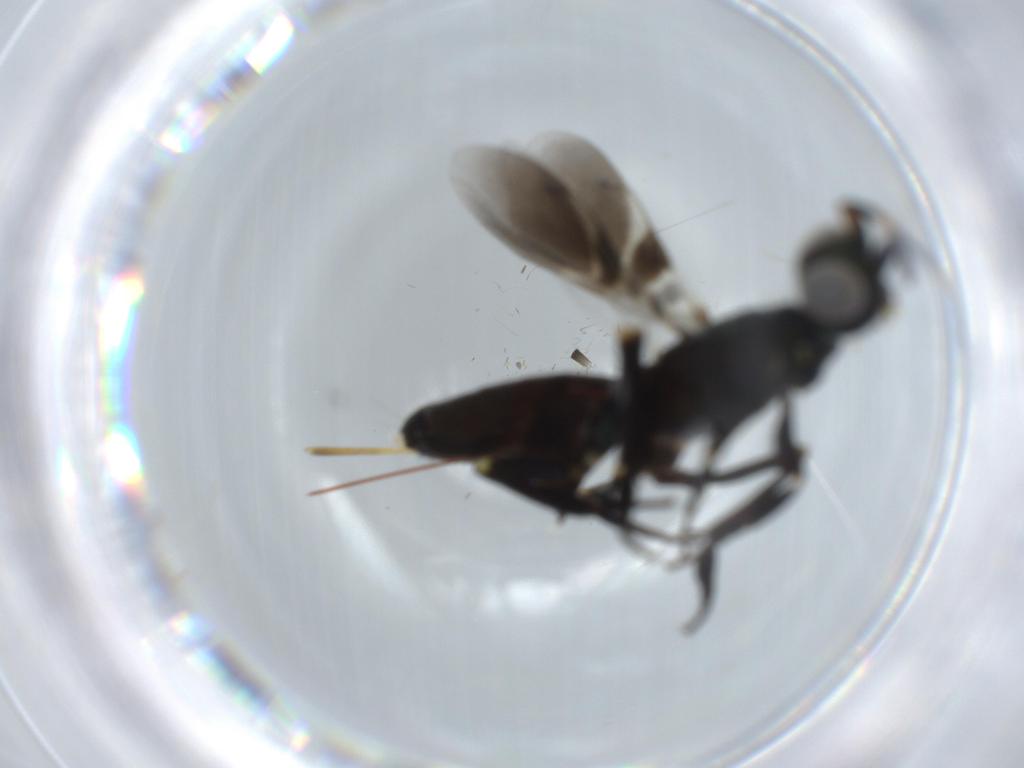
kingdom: Animalia
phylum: Arthropoda
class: Insecta
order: Hymenoptera
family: Eupelmidae
